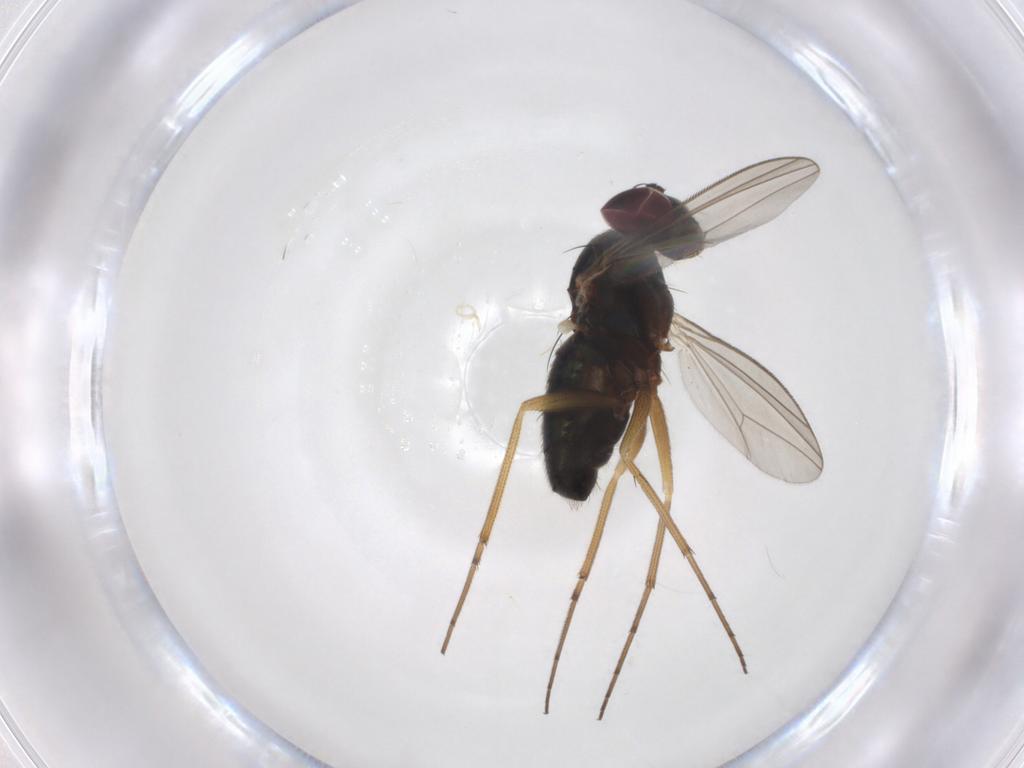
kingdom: Animalia
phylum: Arthropoda
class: Insecta
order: Diptera
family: Dolichopodidae
